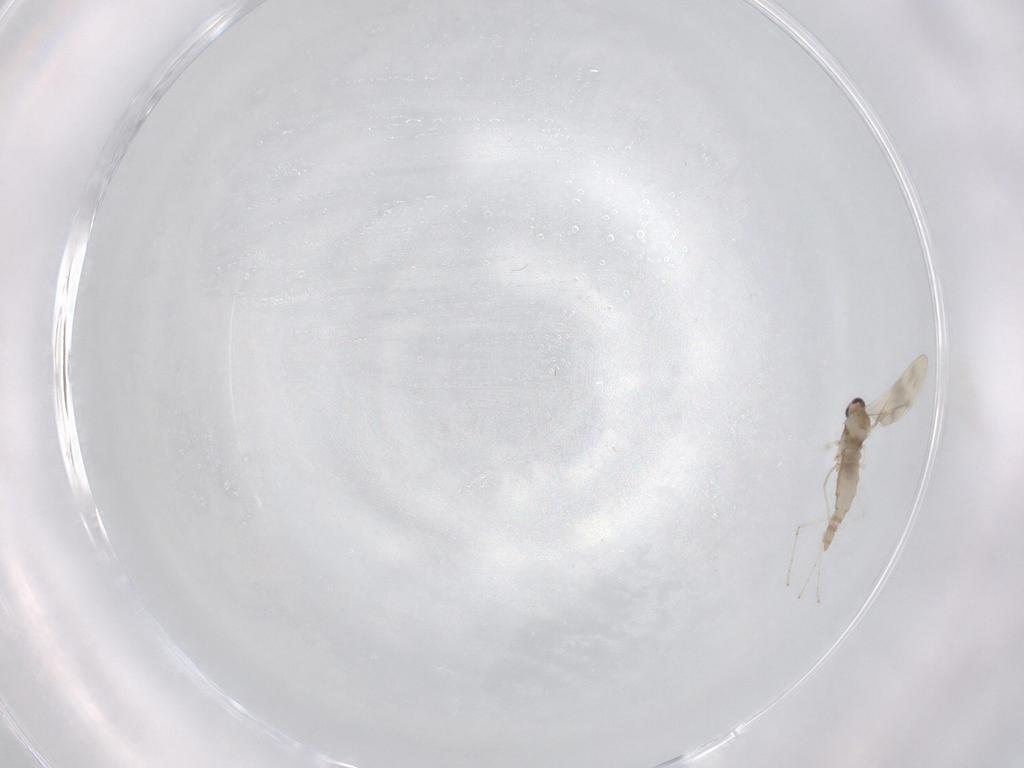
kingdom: Animalia
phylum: Arthropoda
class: Insecta
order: Diptera
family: Cecidomyiidae
